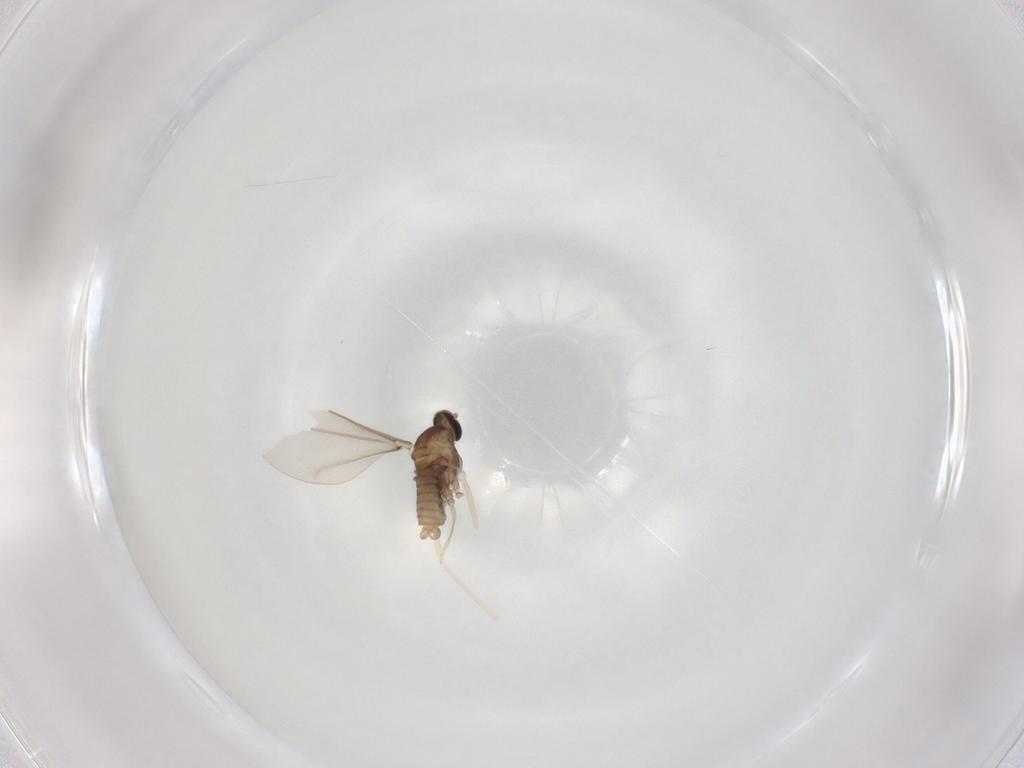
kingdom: Animalia
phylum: Arthropoda
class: Insecta
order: Diptera
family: Cecidomyiidae
